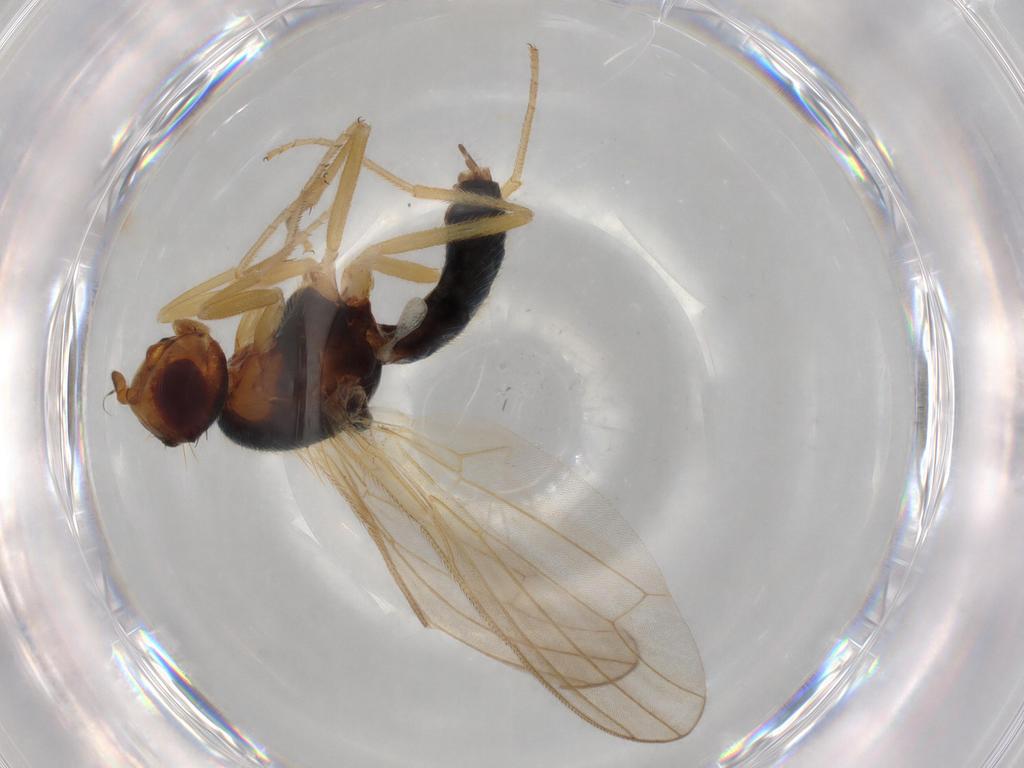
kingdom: Animalia
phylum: Arthropoda
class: Insecta
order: Diptera
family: Hybotidae
